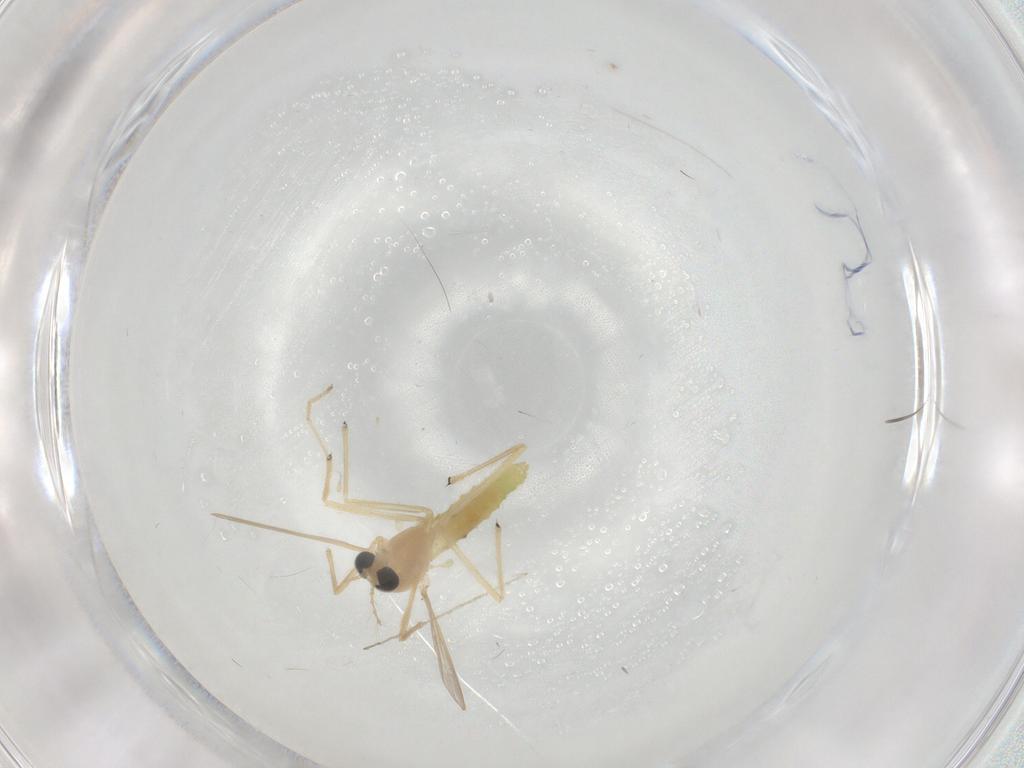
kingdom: Animalia
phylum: Arthropoda
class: Insecta
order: Diptera
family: Chironomidae
